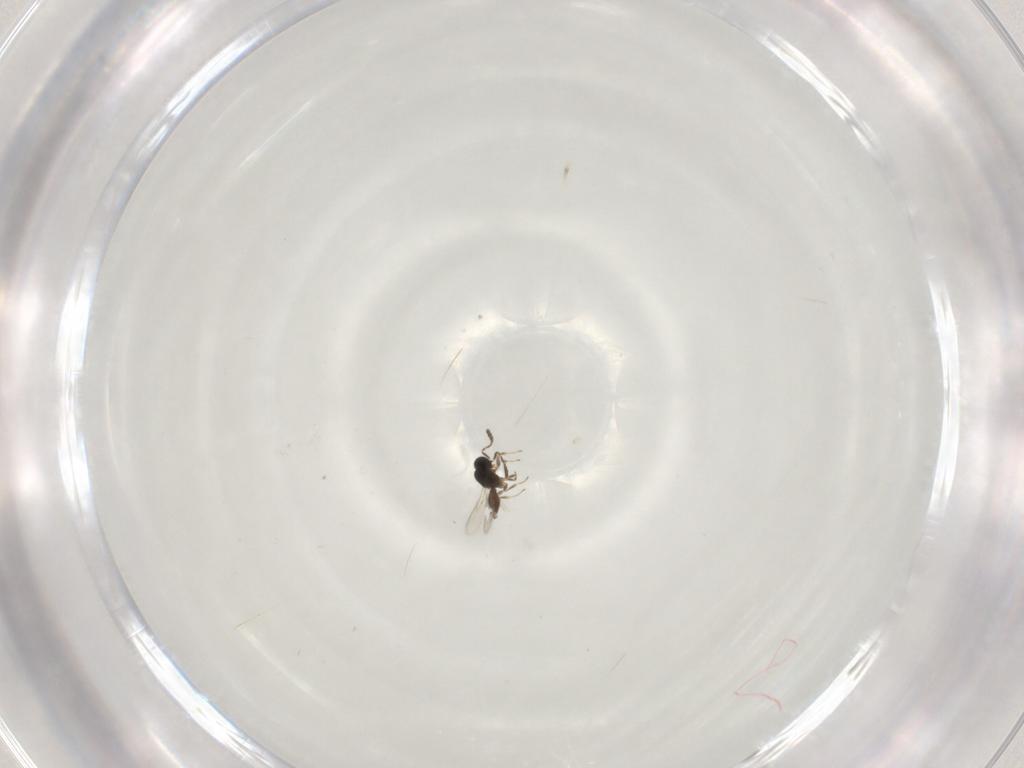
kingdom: Animalia
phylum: Arthropoda
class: Insecta
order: Hymenoptera
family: Scelionidae
